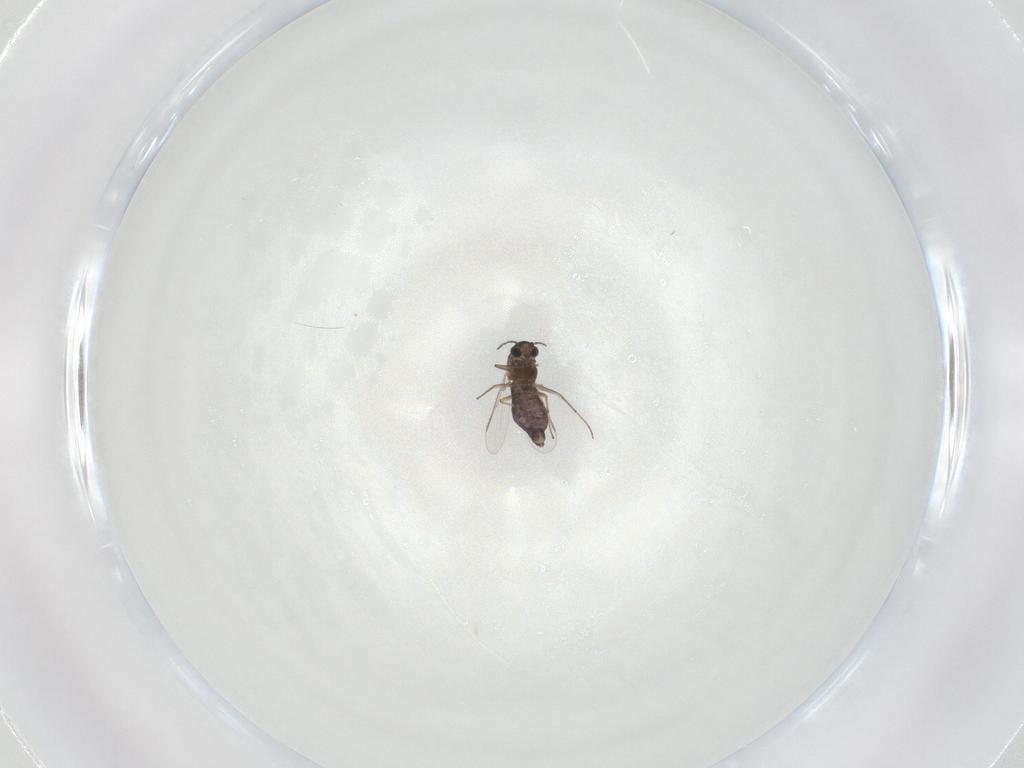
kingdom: Animalia
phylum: Arthropoda
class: Insecta
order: Diptera
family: Chironomidae
